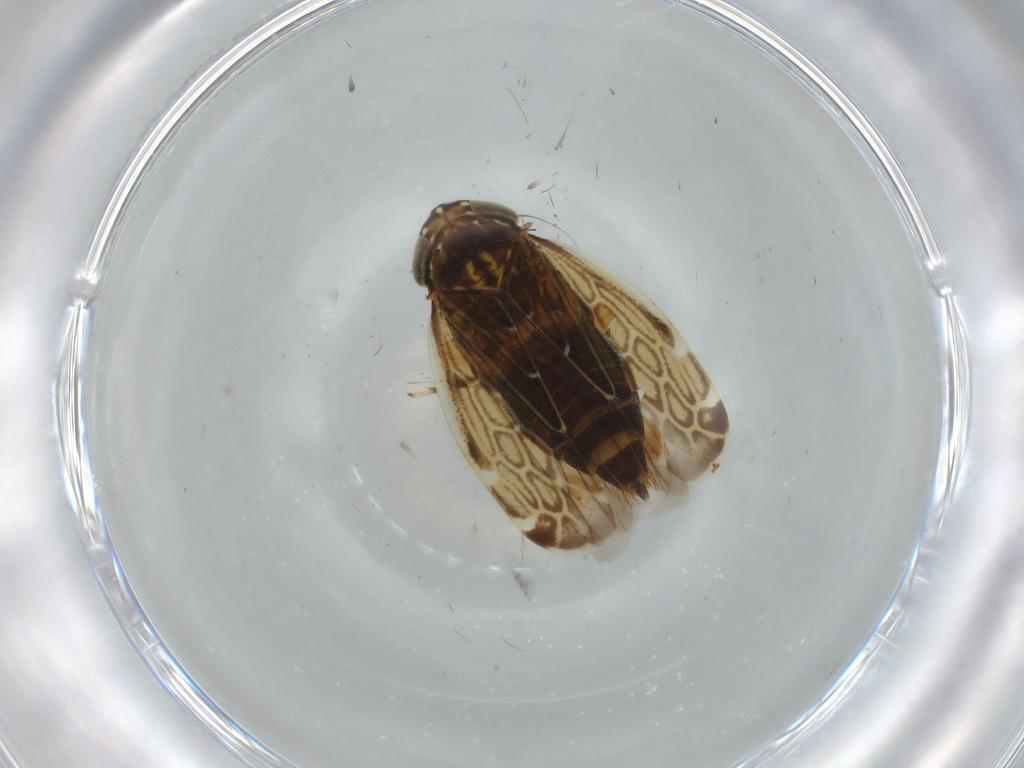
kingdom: Animalia
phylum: Arthropoda
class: Insecta
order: Hemiptera
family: Cicadellidae
